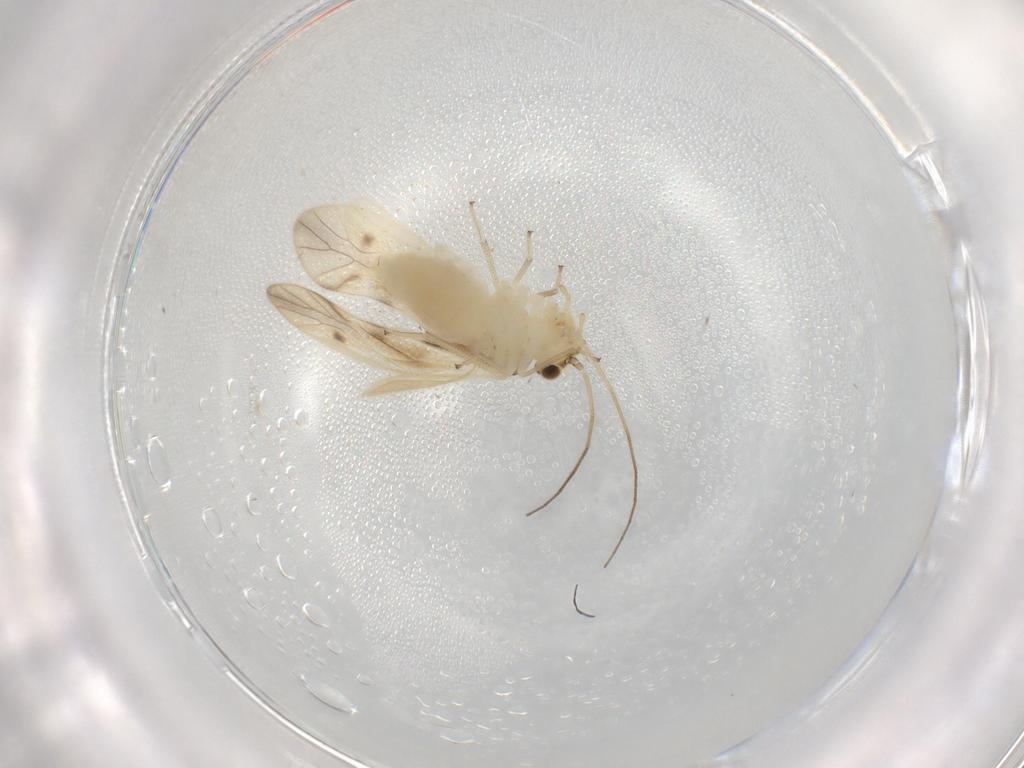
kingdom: Animalia
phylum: Arthropoda
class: Insecta
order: Psocodea
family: Caeciliusidae
